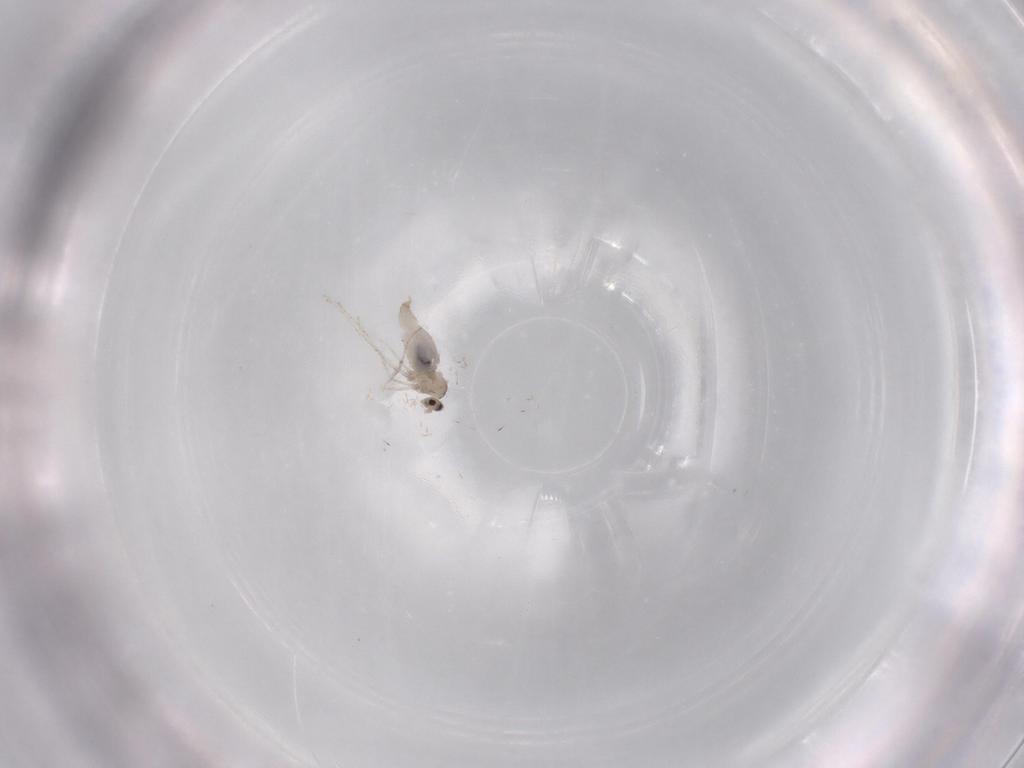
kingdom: Animalia
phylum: Arthropoda
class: Insecta
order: Diptera
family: Cecidomyiidae
